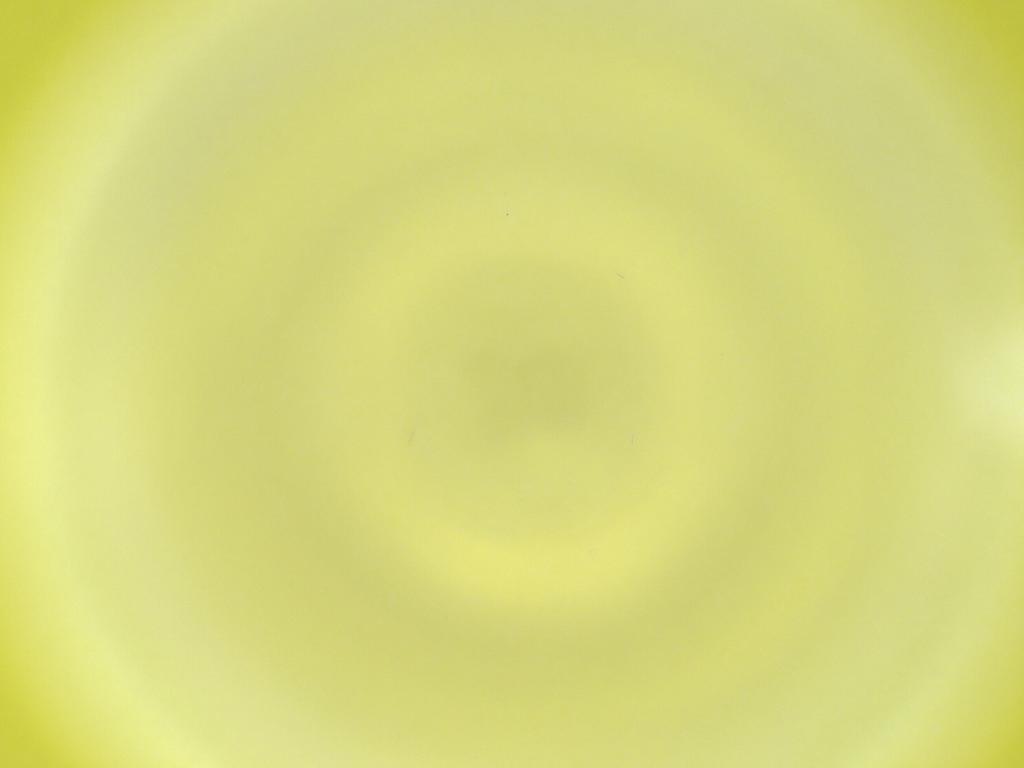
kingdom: Animalia
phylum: Arthropoda
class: Insecta
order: Diptera
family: Cecidomyiidae
